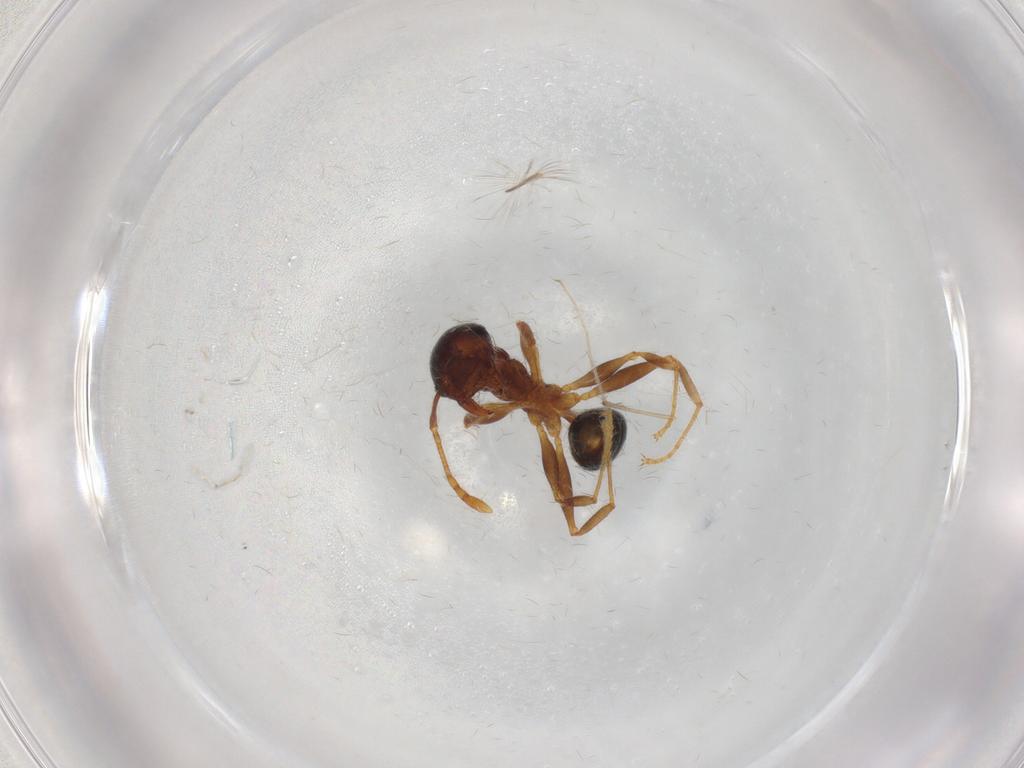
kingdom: Animalia
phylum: Arthropoda
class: Insecta
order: Hymenoptera
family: Formicidae
